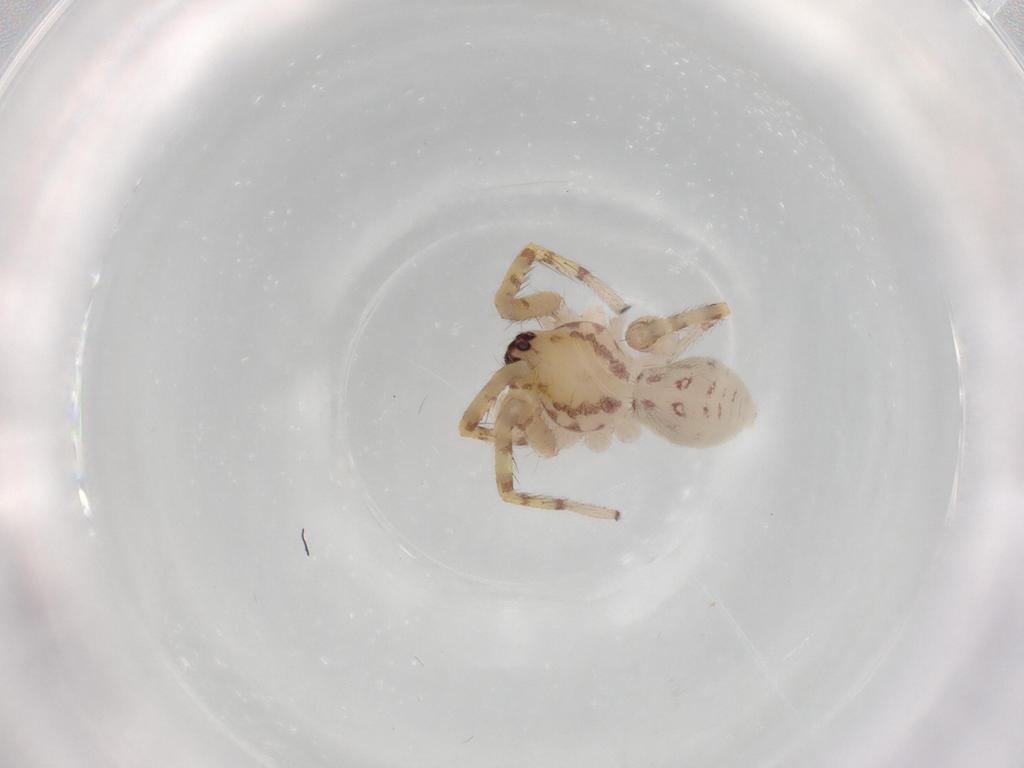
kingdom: Animalia
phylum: Arthropoda
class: Arachnida
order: Araneae
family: Corinnidae
